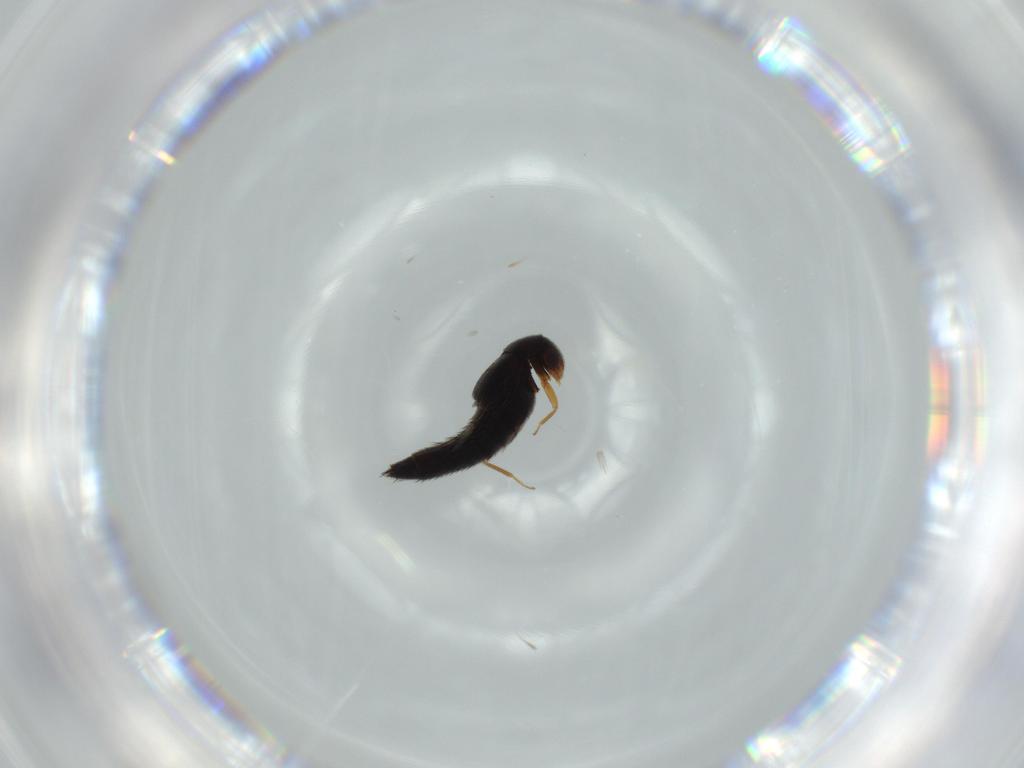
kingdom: Animalia
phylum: Arthropoda
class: Insecta
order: Coleoptera
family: Staphylinidae
